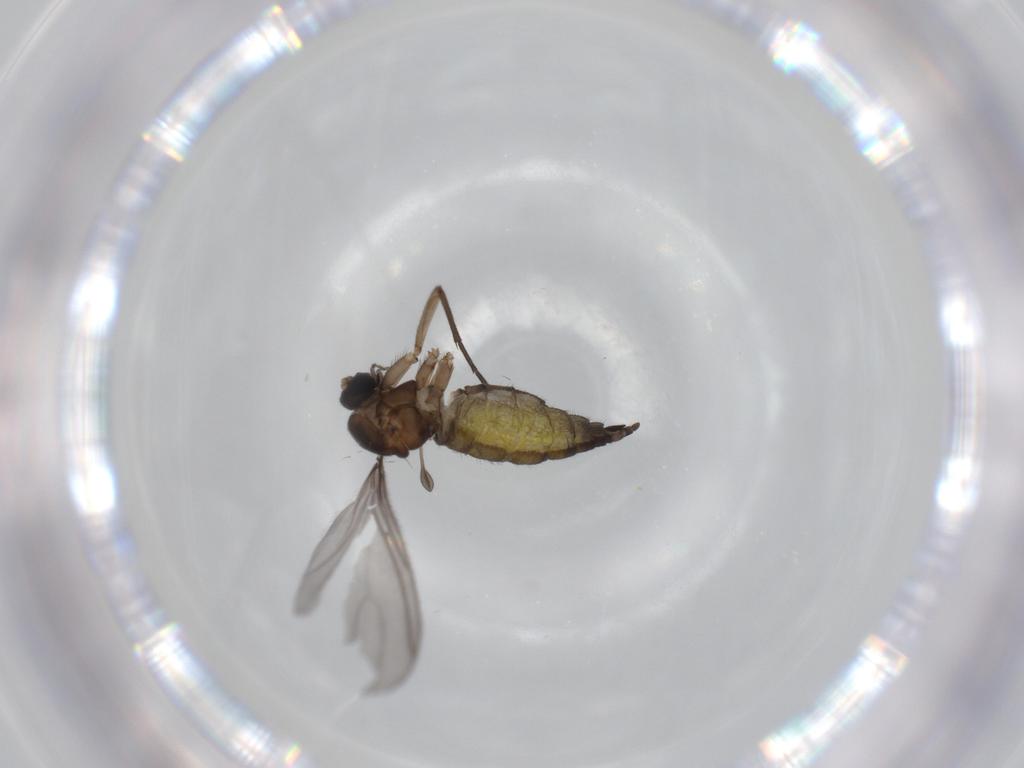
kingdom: Animalia
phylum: Arthropoda
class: Insecta
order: Diptera
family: Sciaridae
